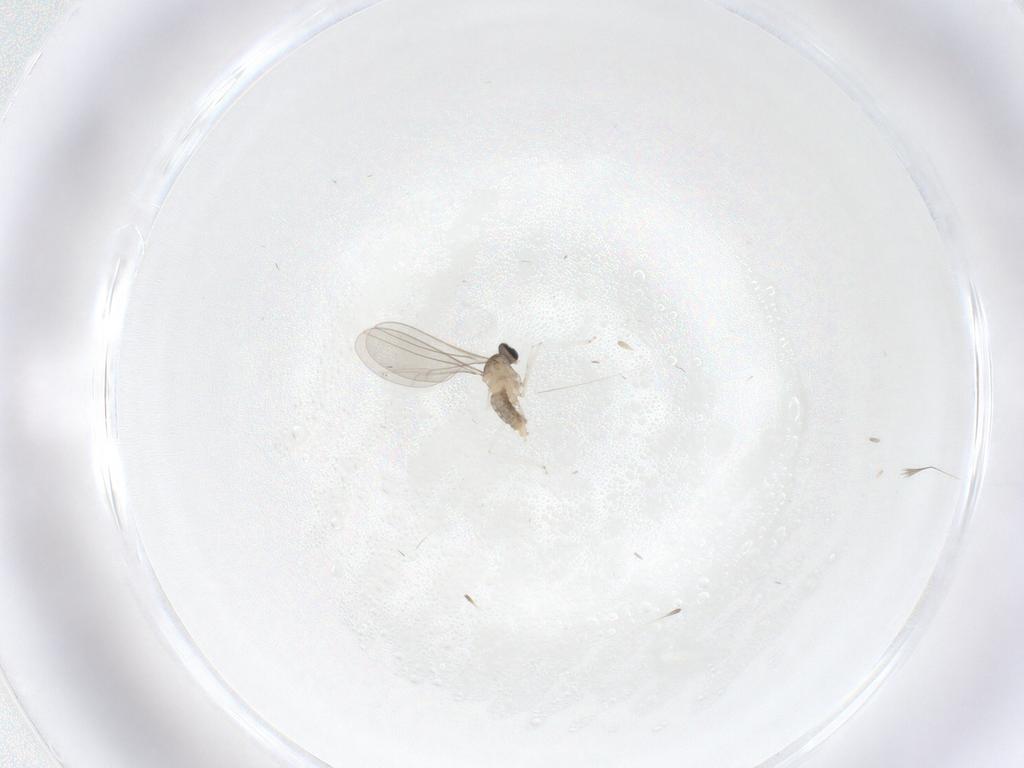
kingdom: Animalia
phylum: Arthropoda
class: Insecta
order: Diptera
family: Cecidomyiidae
